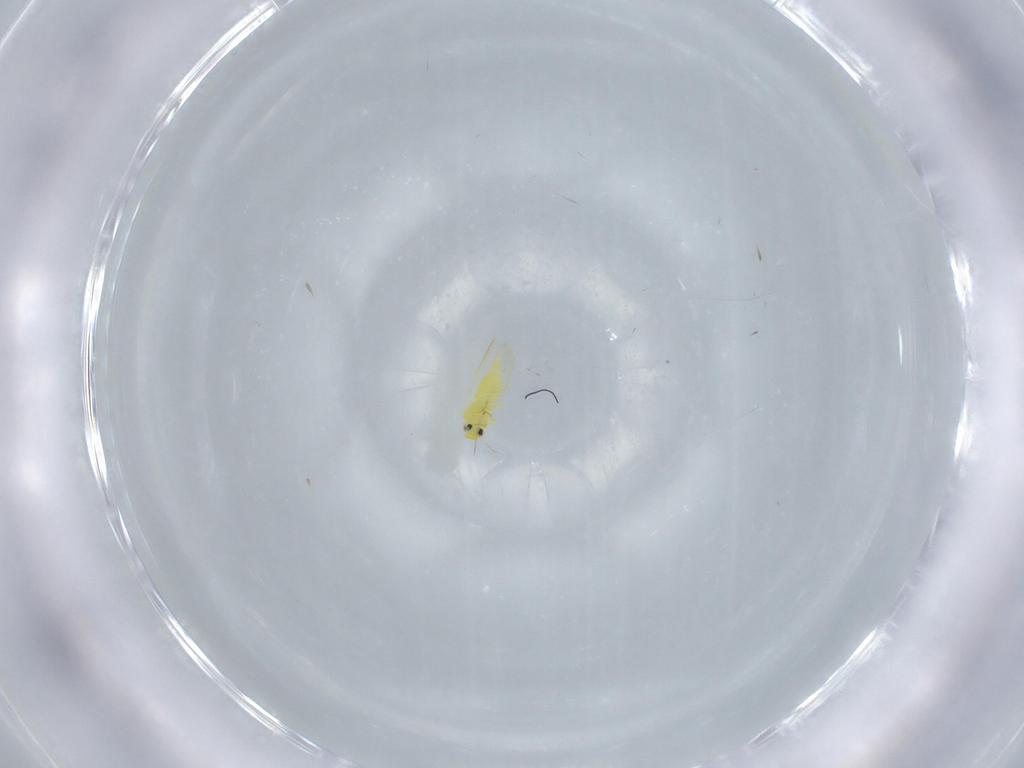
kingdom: Animalia
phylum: Arthropoda
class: Insecta
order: Hemiptera
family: Aleyrodidae
